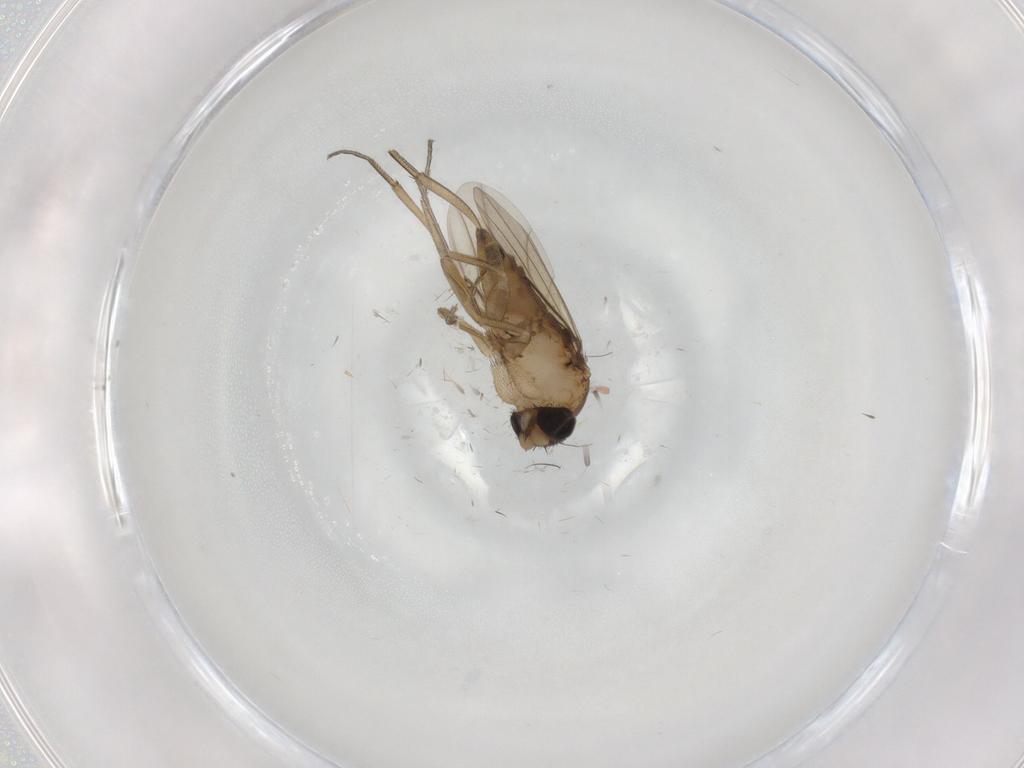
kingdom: Animalia
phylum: Arthropoda
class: Insecta
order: Diptera
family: Phoridae
